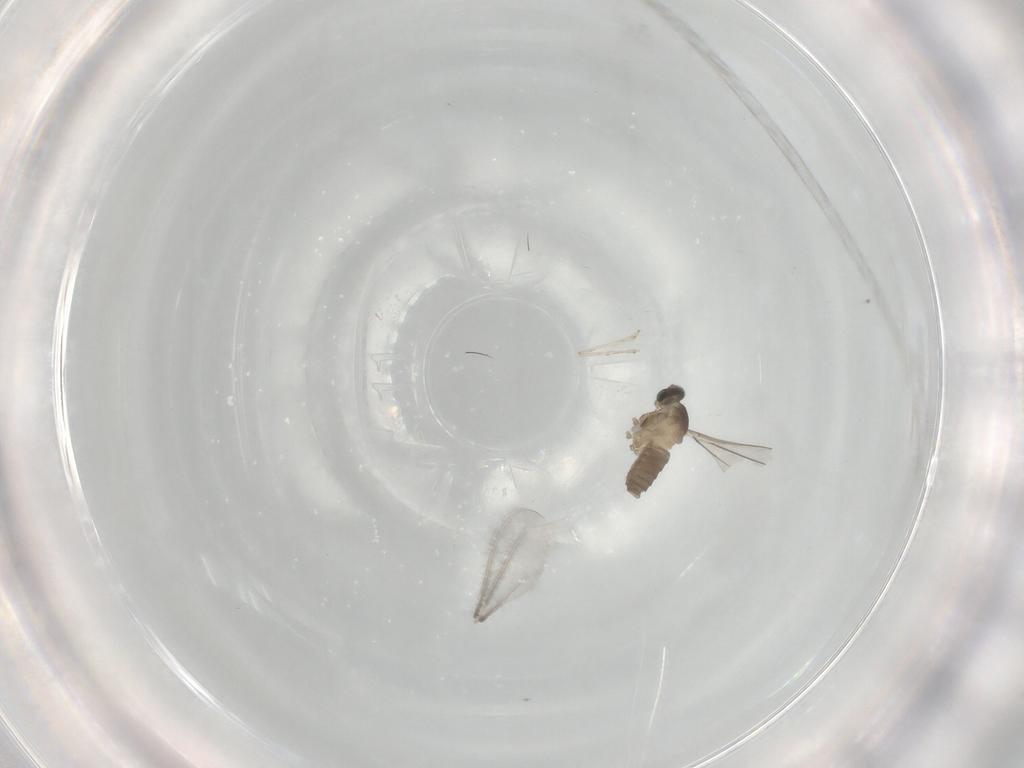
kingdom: Animalia
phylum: Arthropoda
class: Insecta
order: Diptera
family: Cecidomyiidae
